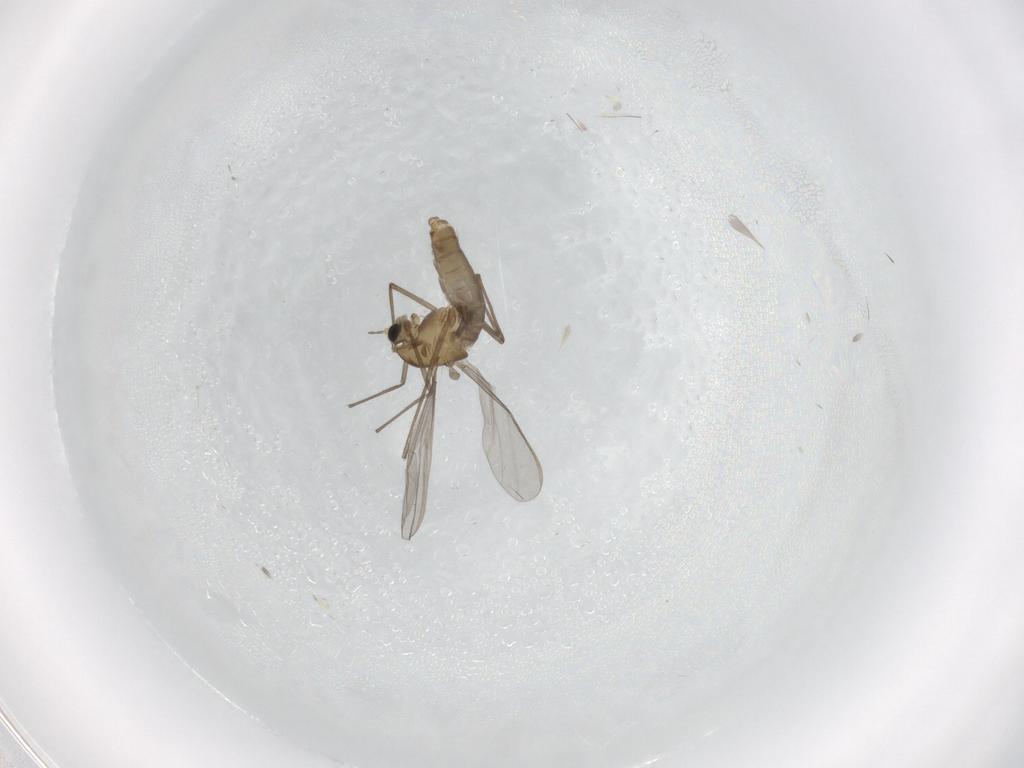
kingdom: Animalia
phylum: Arthropoda
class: Insecta
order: Diptera
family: Chironomidae
